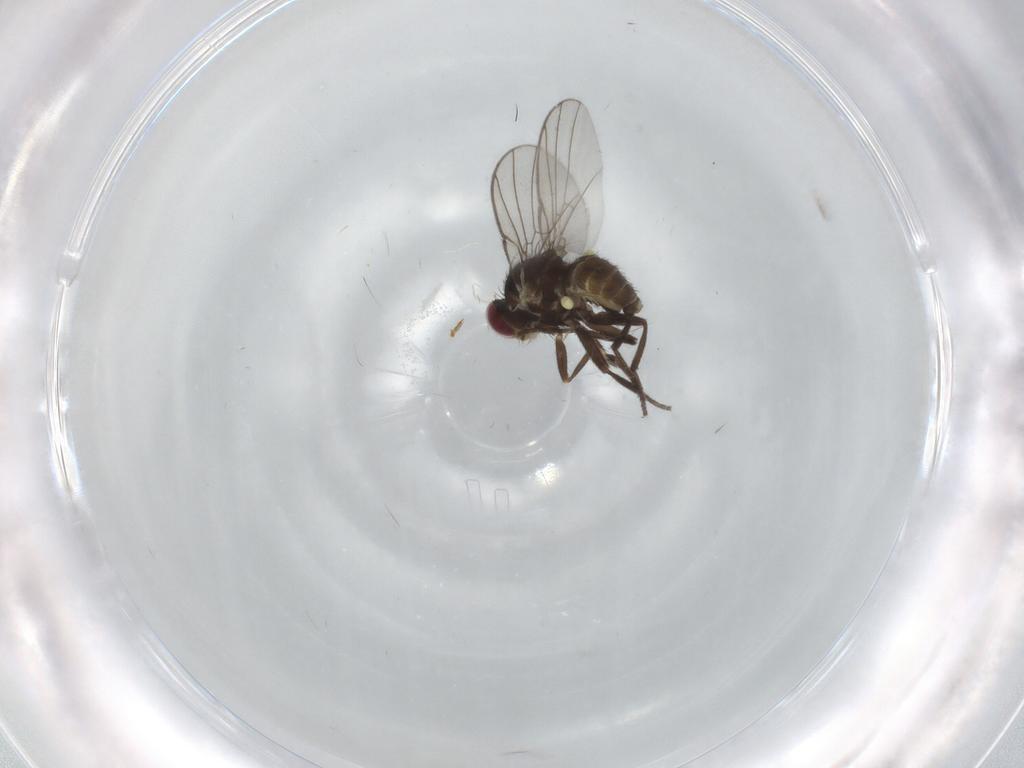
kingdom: Animalia
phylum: Arthropoda
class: Insecta
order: Diptera
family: Agromyzidae
